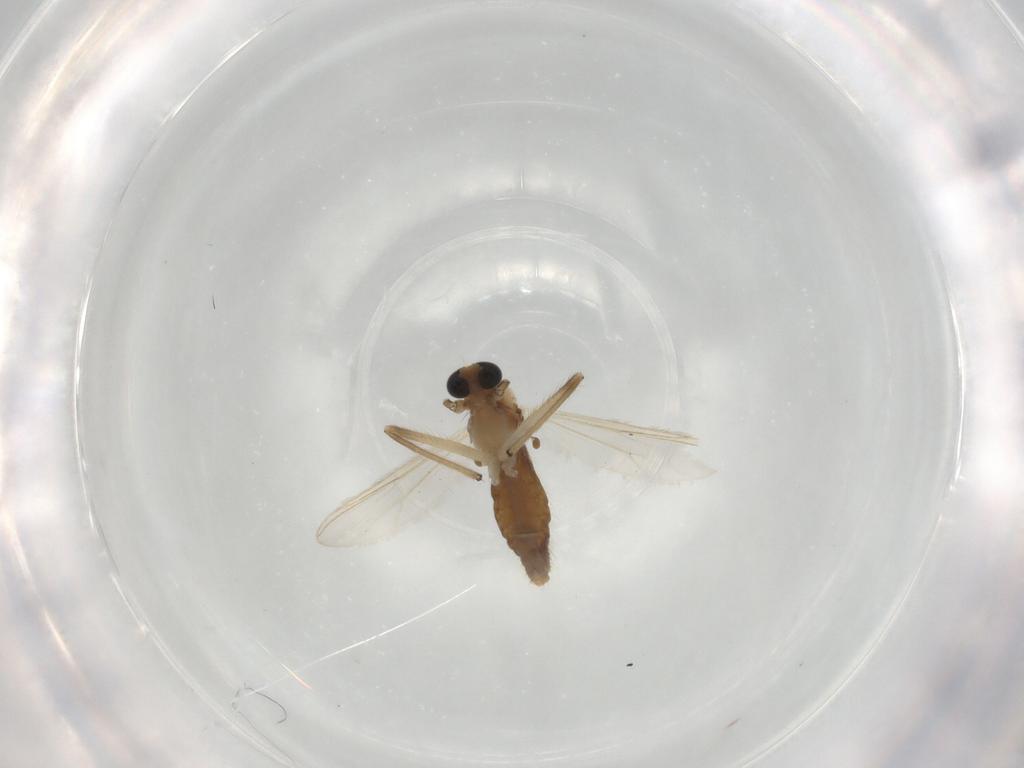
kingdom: Animalia
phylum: Arthropoda
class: Insecta
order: Diptera
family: Chironomidae
